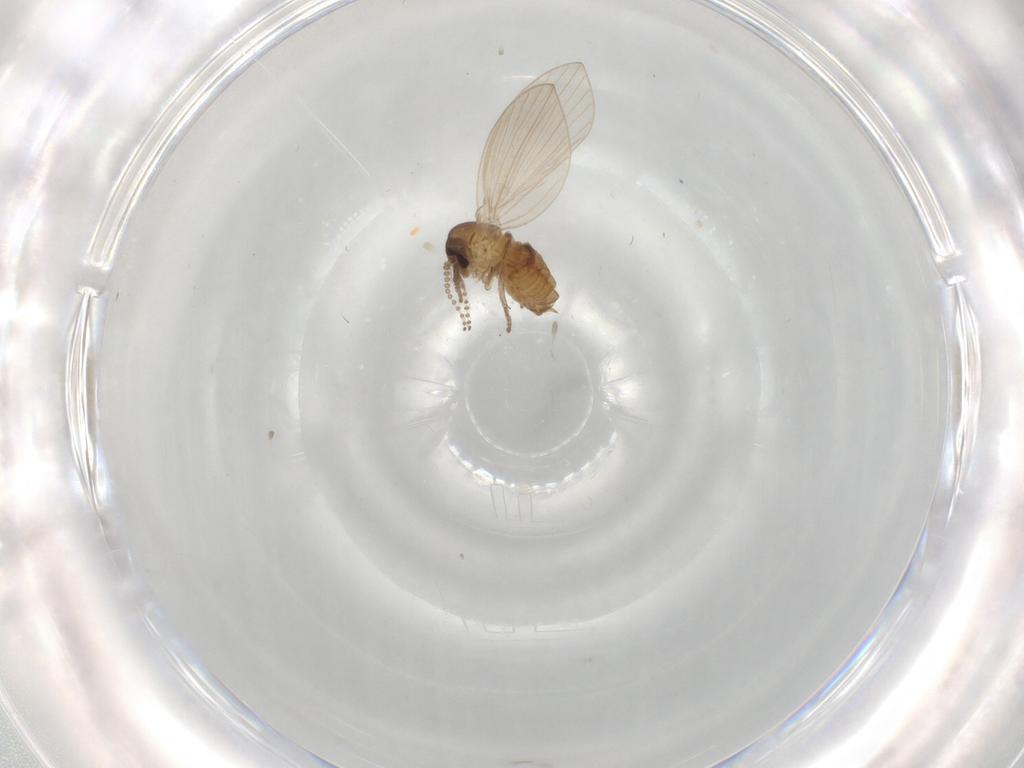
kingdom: Animalia
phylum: Arthropoda
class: Insecta
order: Diptera
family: Psychodidae
